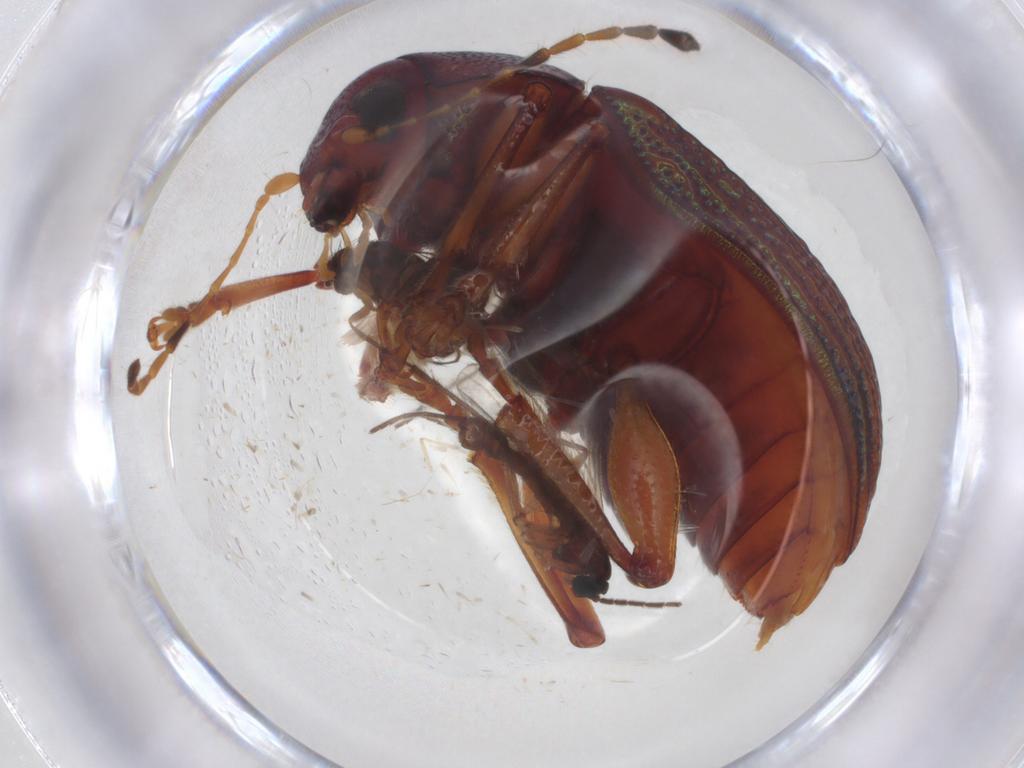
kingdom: Animalia
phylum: Arthropoda
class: Insecta
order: Coleoptera
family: Chrysomelidae
